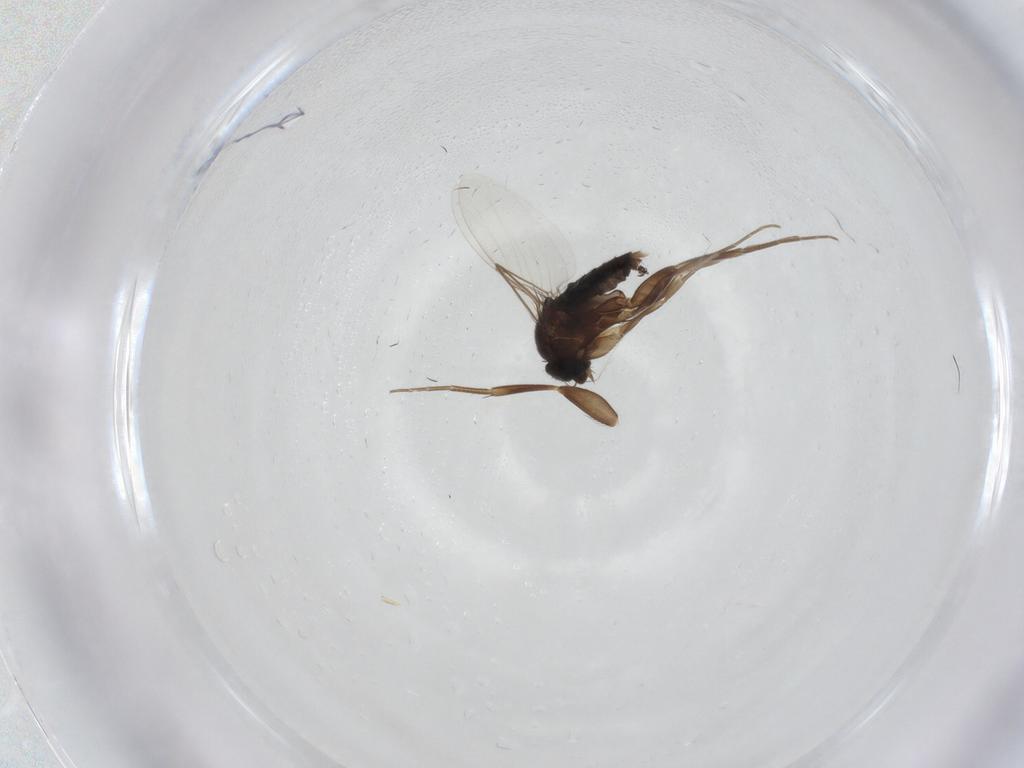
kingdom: Animalia
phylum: Arthropoda
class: Insecta
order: Diptera
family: Phoridae
